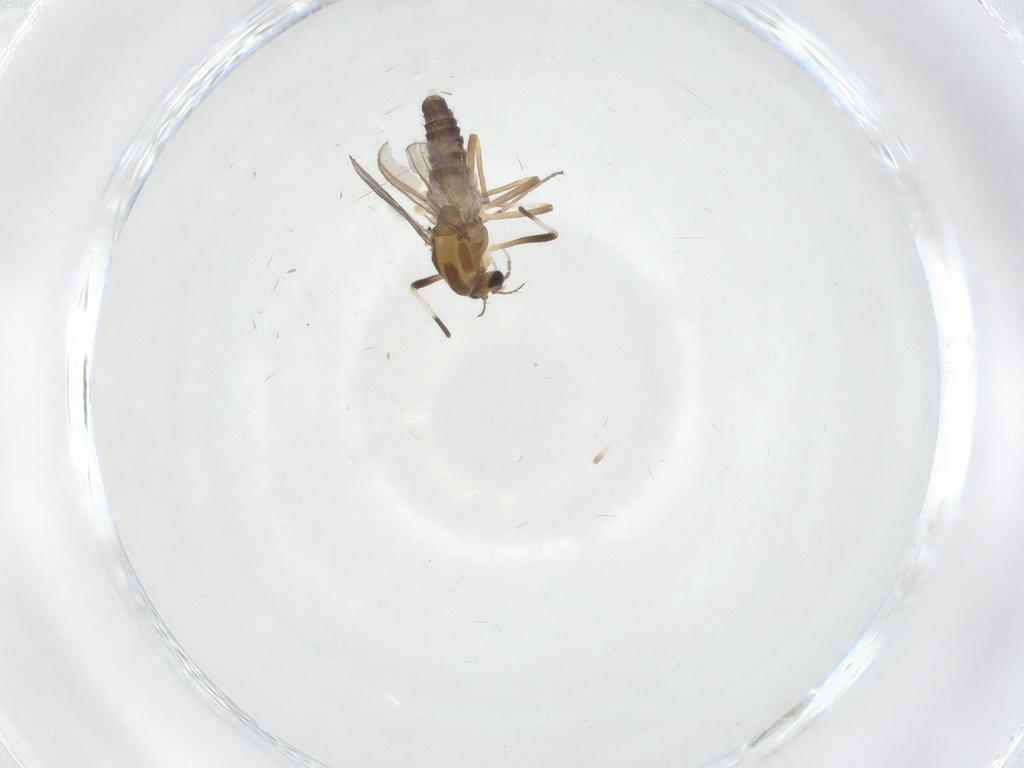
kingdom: Animalia
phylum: Arthropoda
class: Insecta
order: Diptera
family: Chironomidae
